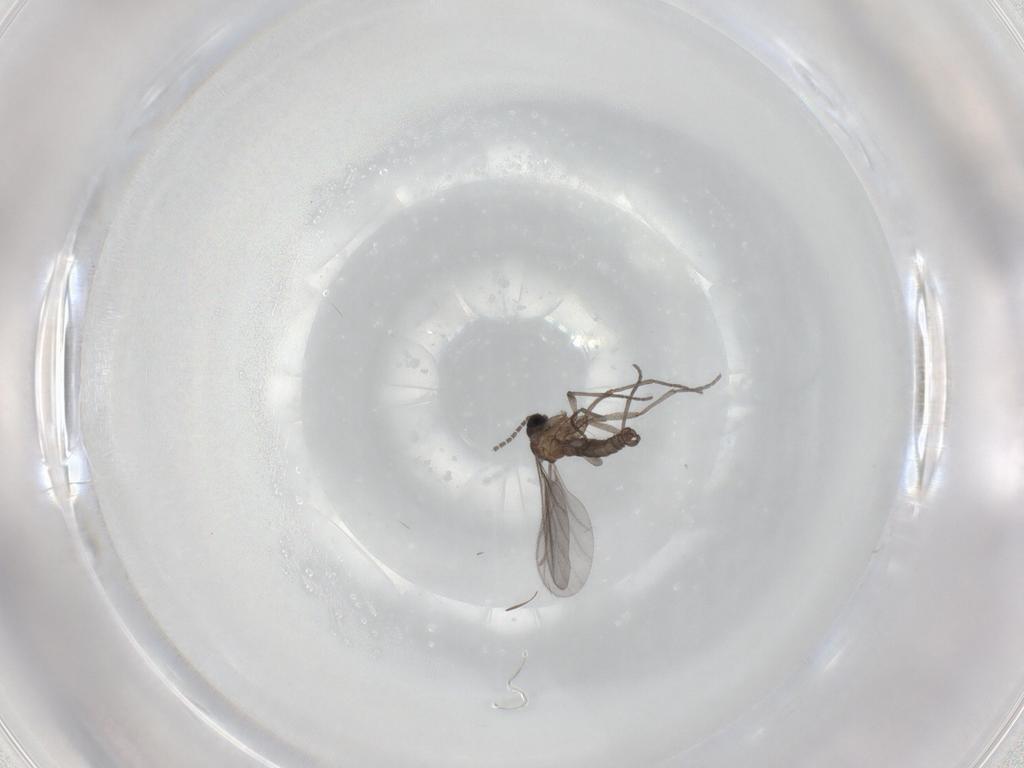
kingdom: Animalia
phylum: Arthropoda
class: Insecta
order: Diptera
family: Sciaridae
